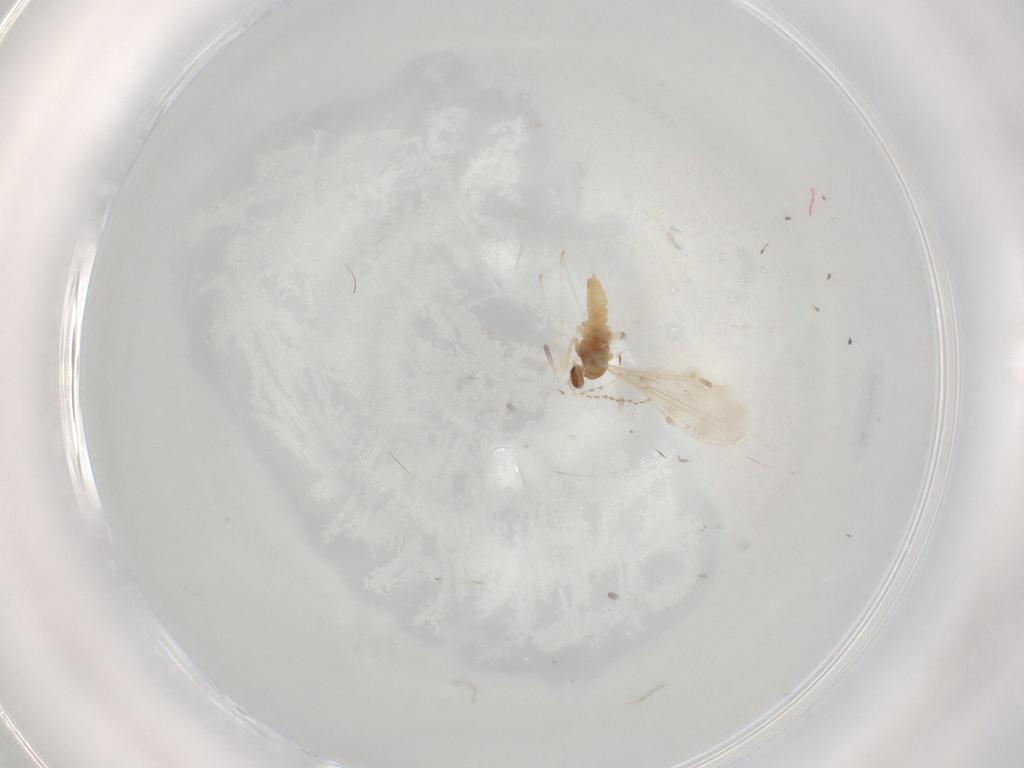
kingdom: Animalia
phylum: Arthropoda
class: Insecta
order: Diptera
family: Cecidomyiidae
